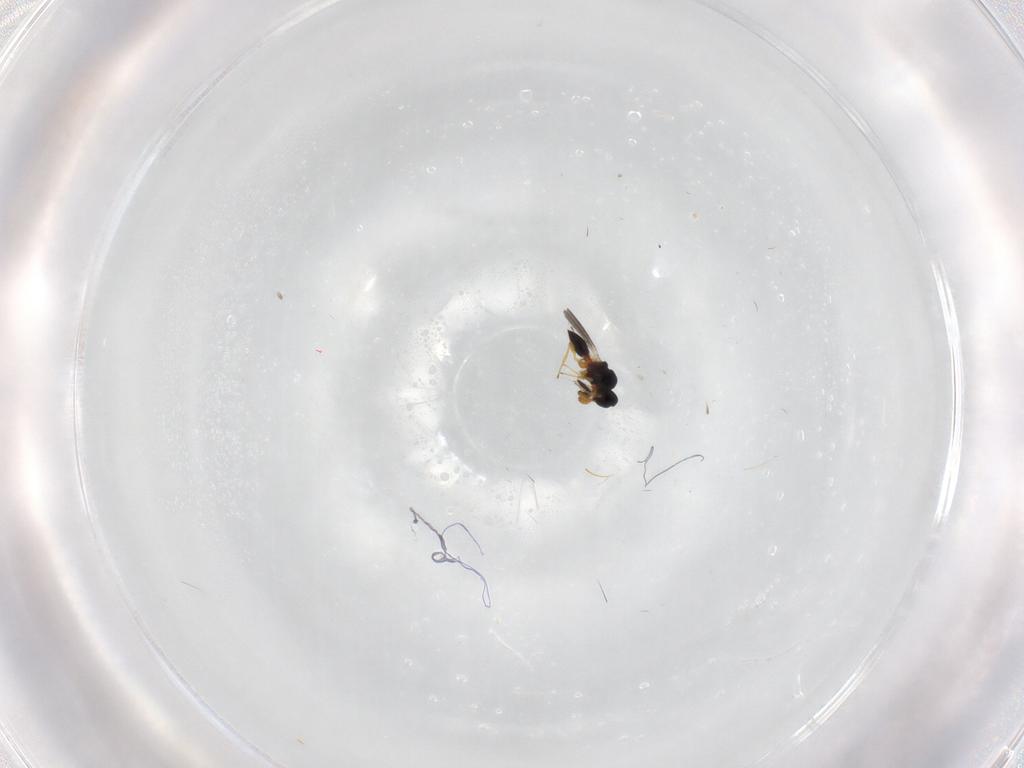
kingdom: Animalia
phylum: Arthropoda
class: Insecta
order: Hymenoptera
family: Platygastridae
